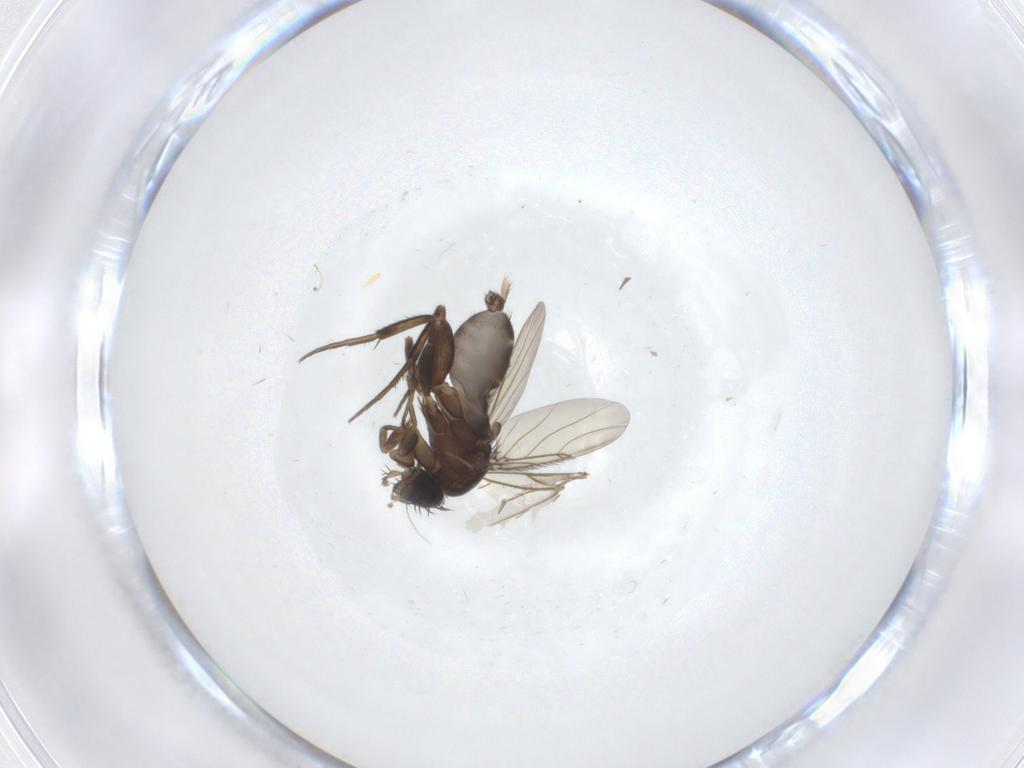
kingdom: Animalia
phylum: Arthropoda
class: Insecta
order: Diptera
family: Phoridae
